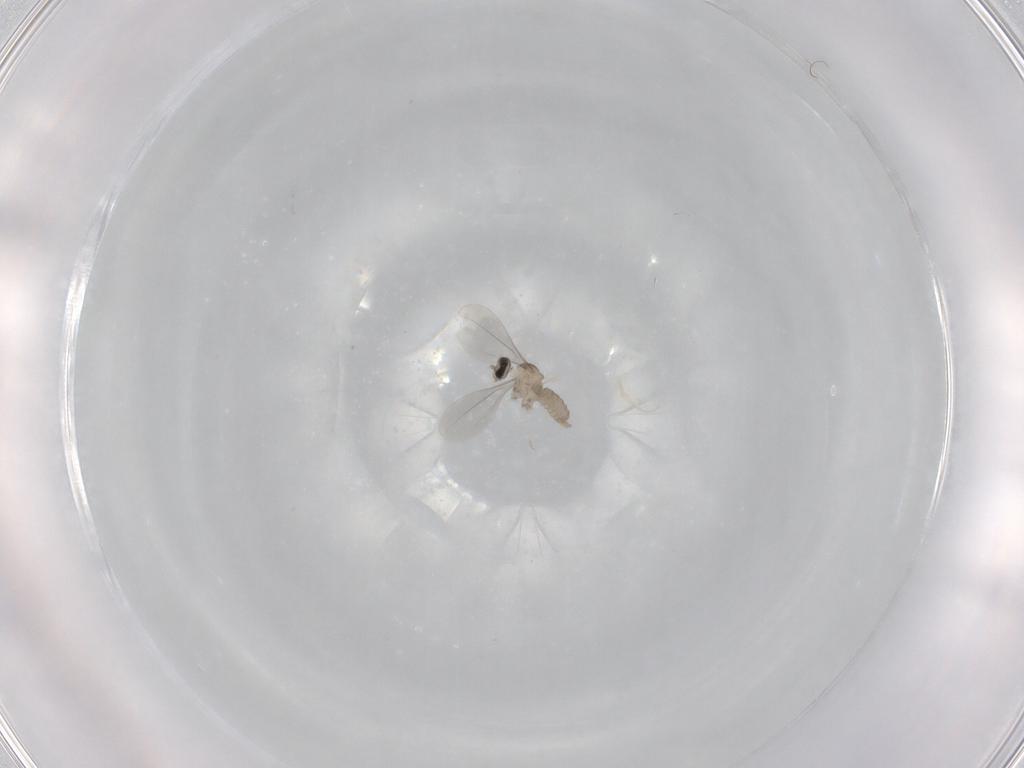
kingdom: Animalia
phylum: Arthropoda
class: Insecta
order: Diptera
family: Cecidomyiidae
